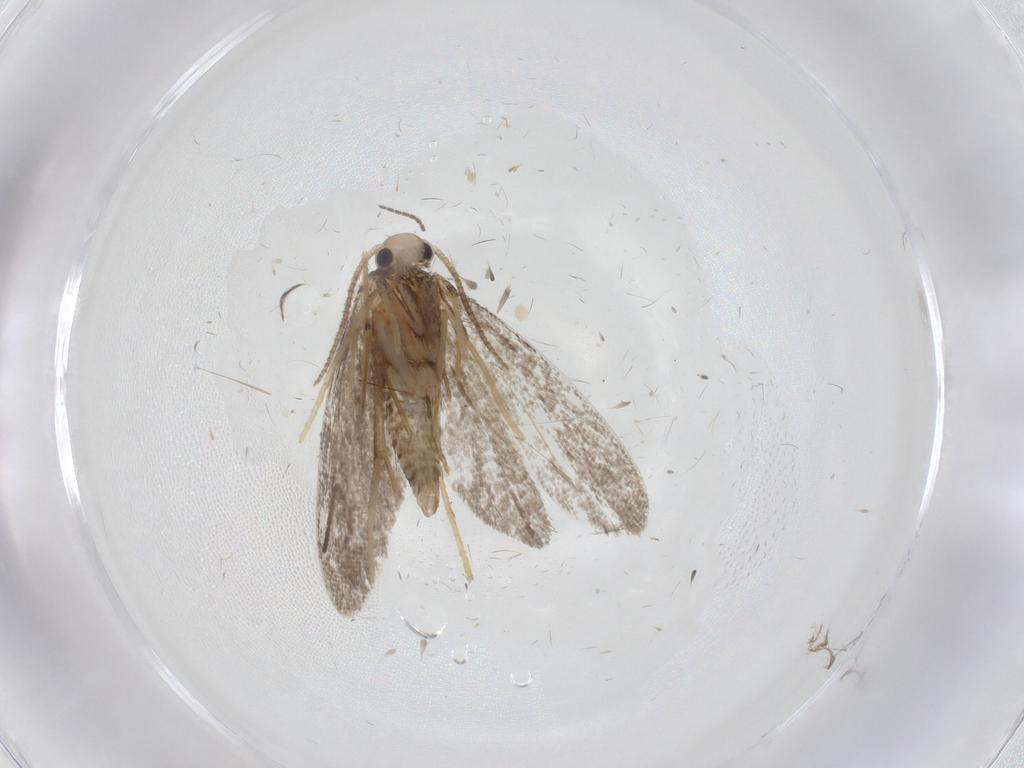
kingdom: Animalia
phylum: Arthropoda
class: Insecta
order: Lepidoptera
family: Psychidae
